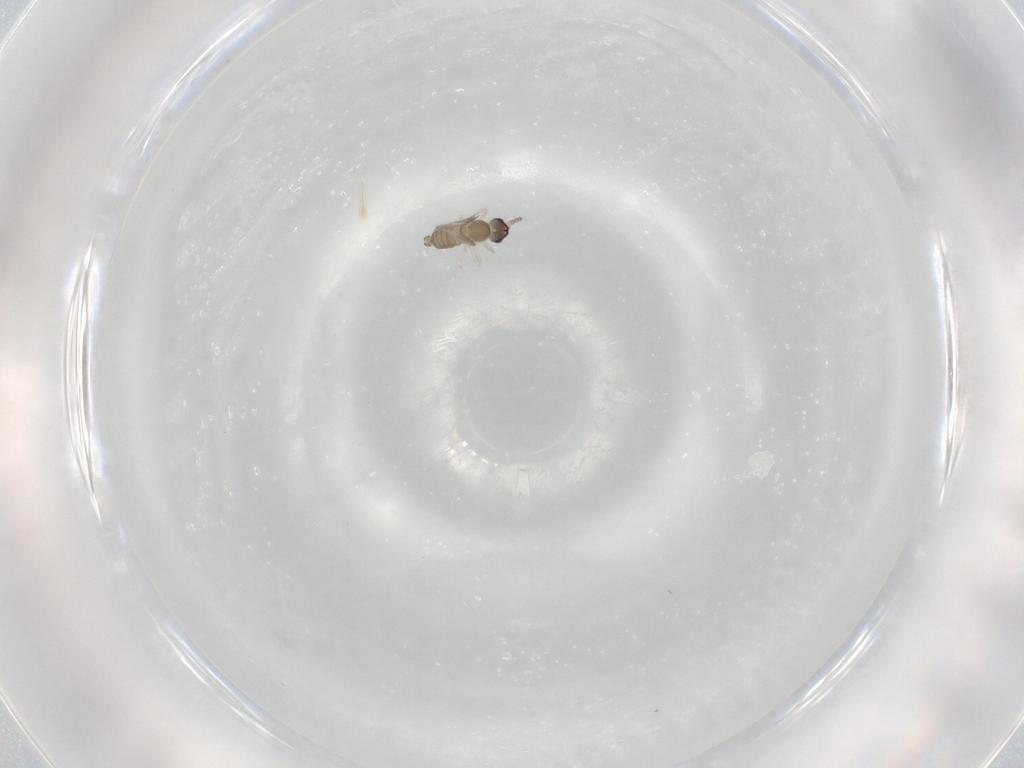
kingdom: Animalia
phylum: Arthropoda
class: Insecta
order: Diptera
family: Cecidomyiidae
